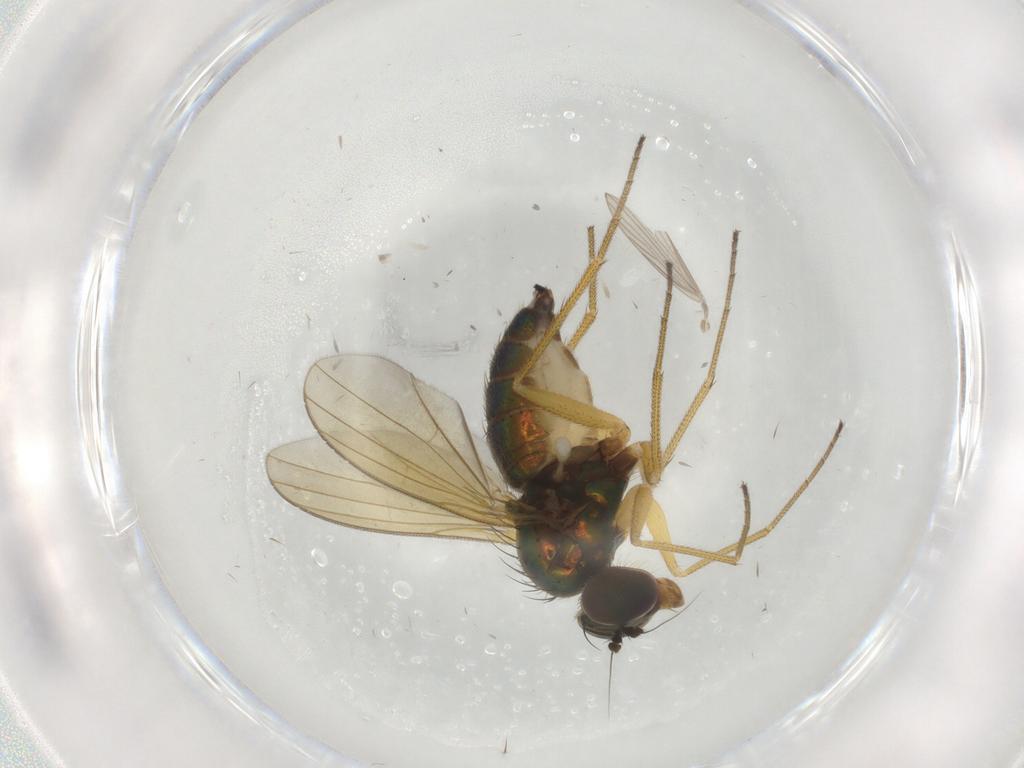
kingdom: Animalia
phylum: Arthropoda
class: Insecta
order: Diptera
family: Dolichopodidae
